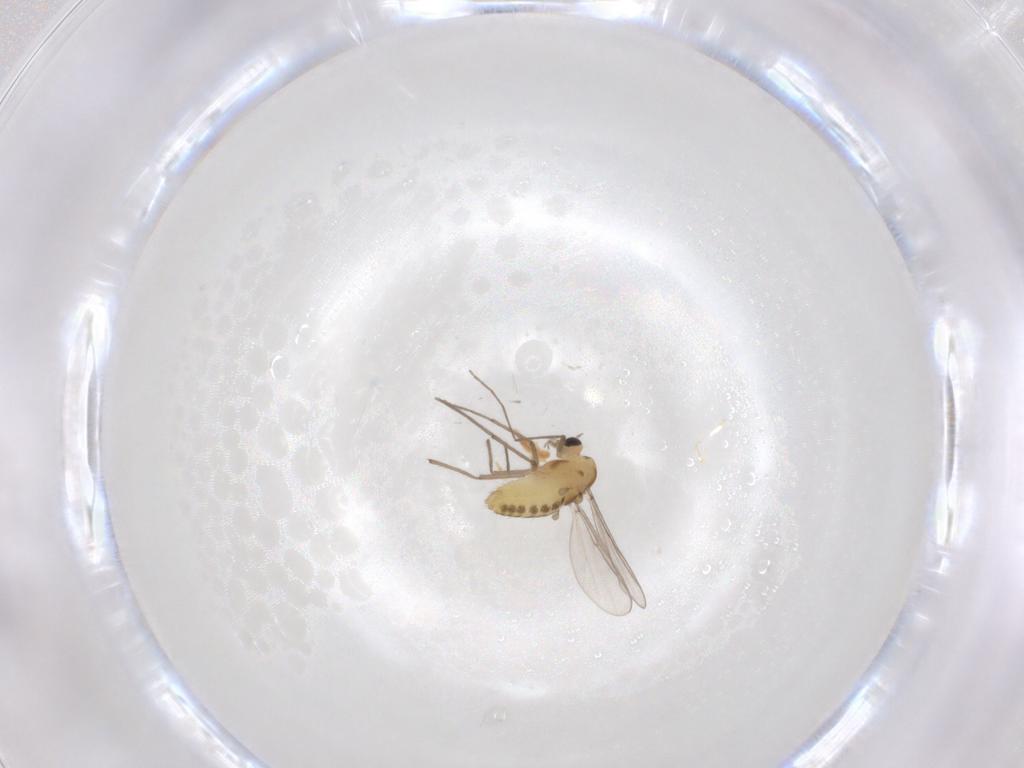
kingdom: Animalia
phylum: Arthropoda
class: Insecta
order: Diptera
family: Chironomidae
